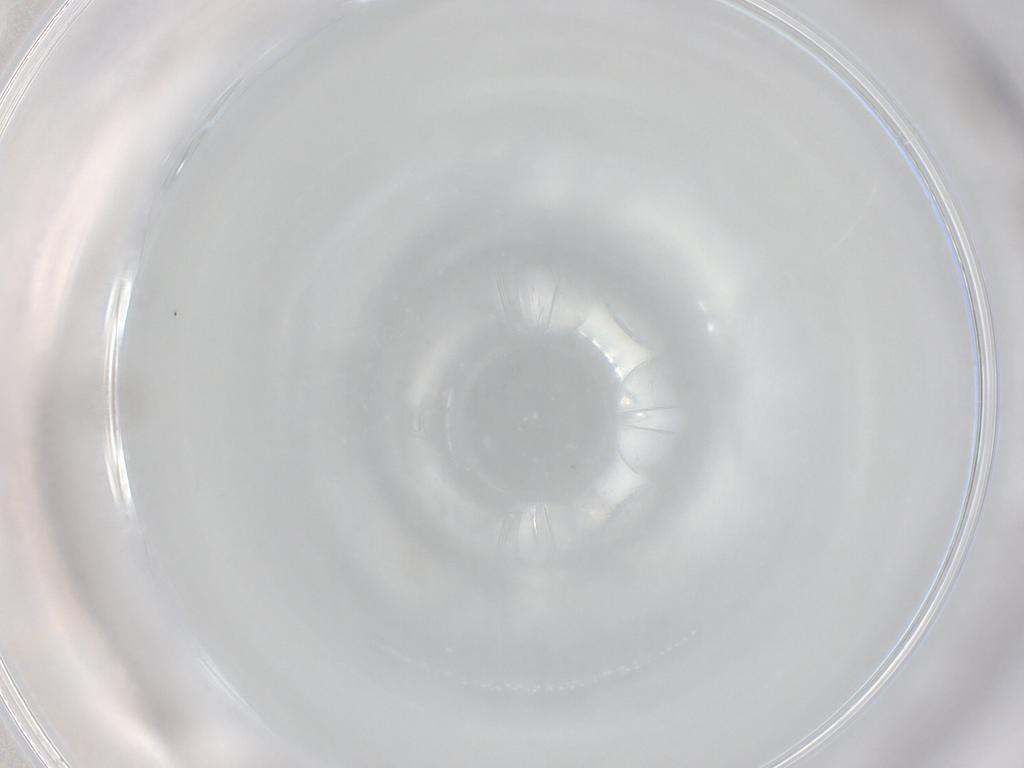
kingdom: Animalia
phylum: Arthropoda
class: Insecta
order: Diptera
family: Cecidomyiidae
